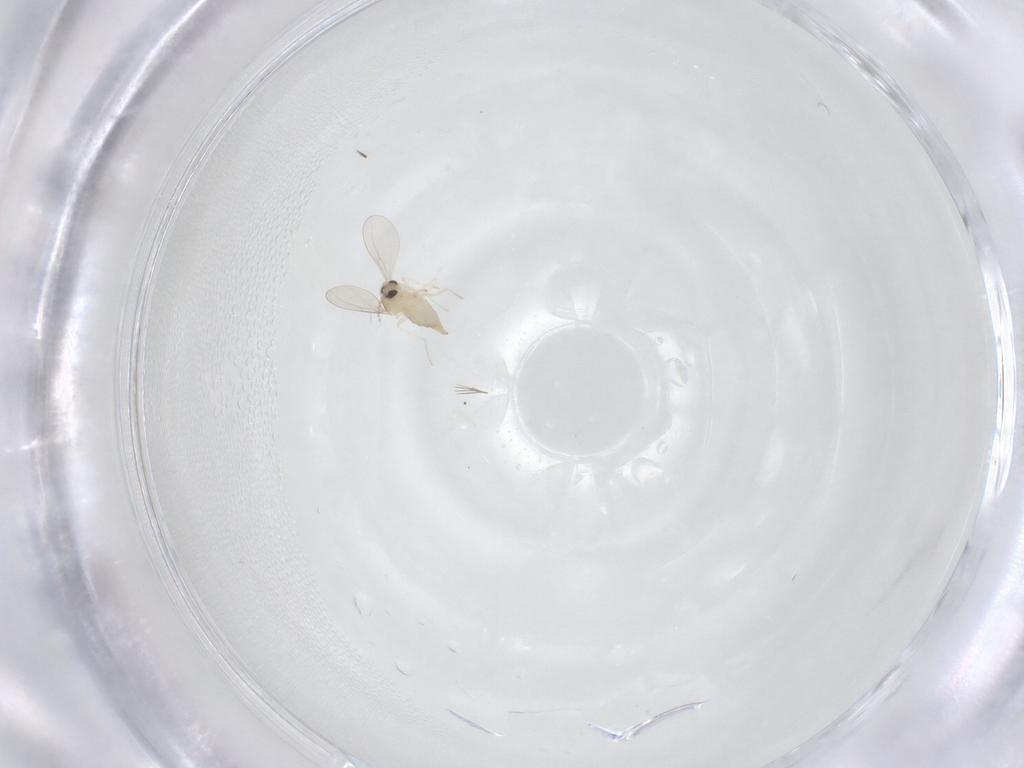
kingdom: Animalia
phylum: Arthropoda
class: Insecta
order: Diptera
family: Cecidomyiidae
